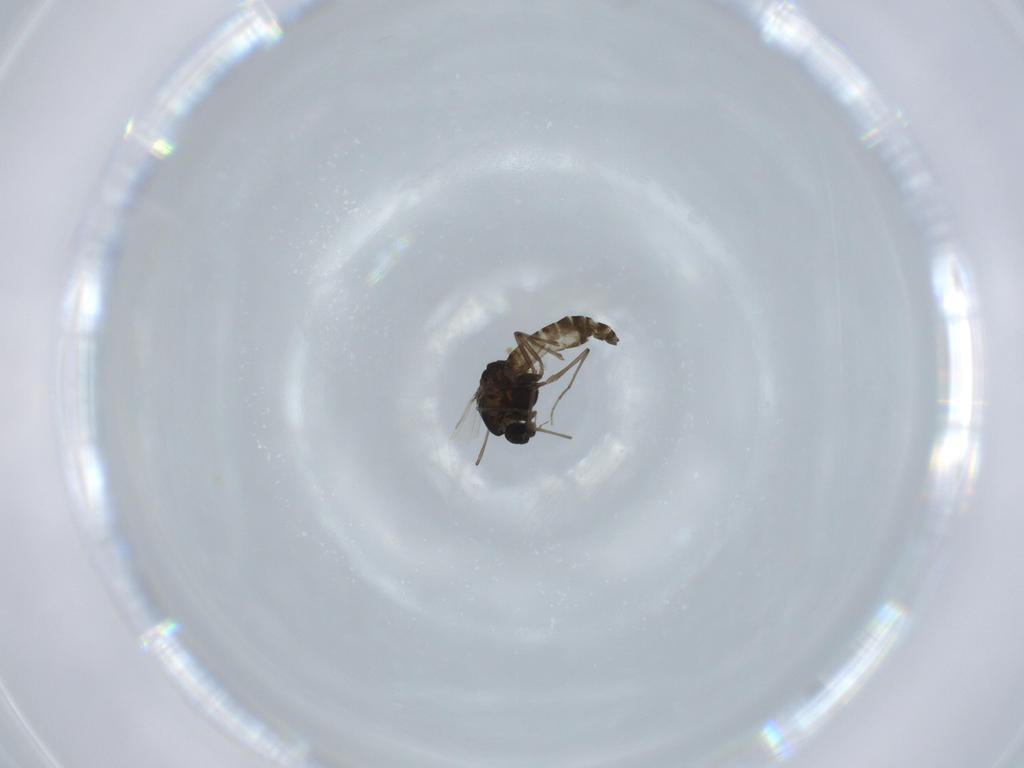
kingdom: Animalia
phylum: Arthropoda
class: Insecta
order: Diptera
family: Chironomidae
